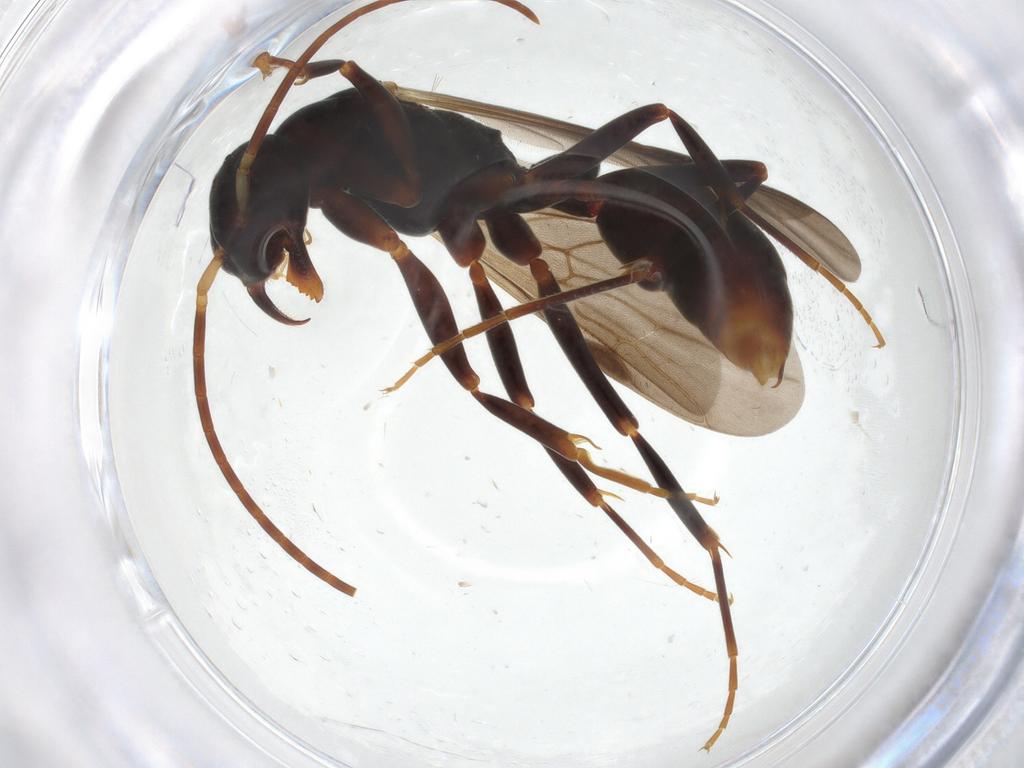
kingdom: Animalia
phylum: Arthropoda
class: Insecta
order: Hymenoptera
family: Formicidae
